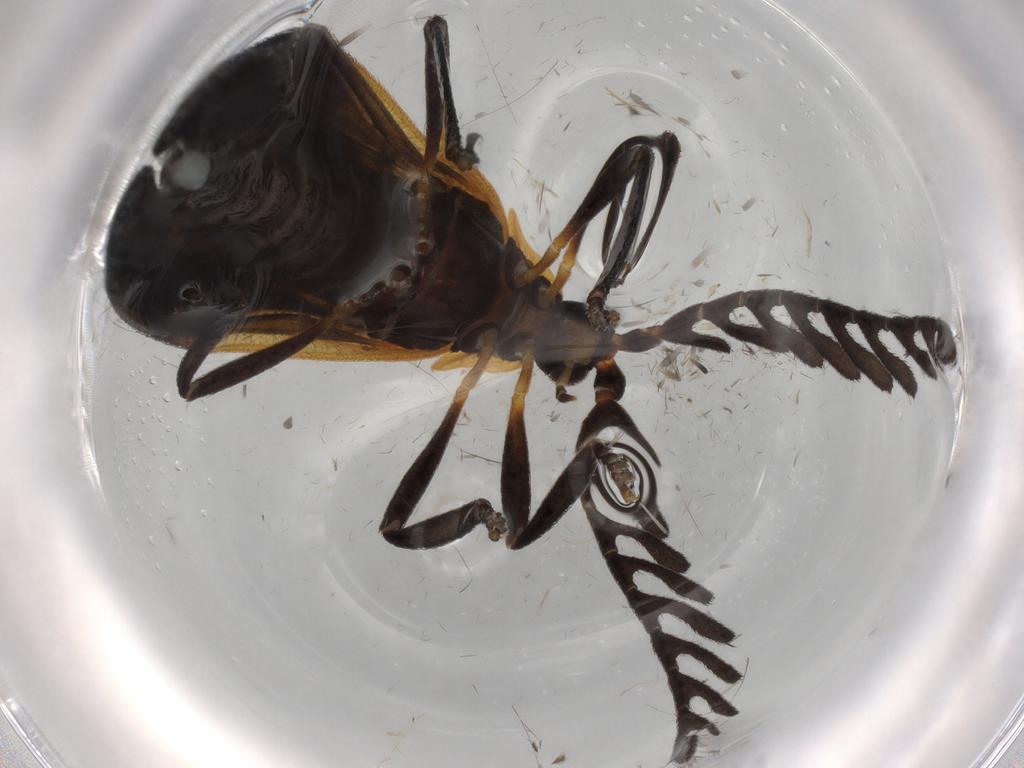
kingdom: Animalia
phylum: Arthropoda
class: Insecta
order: Coleoptera
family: Lycidae
